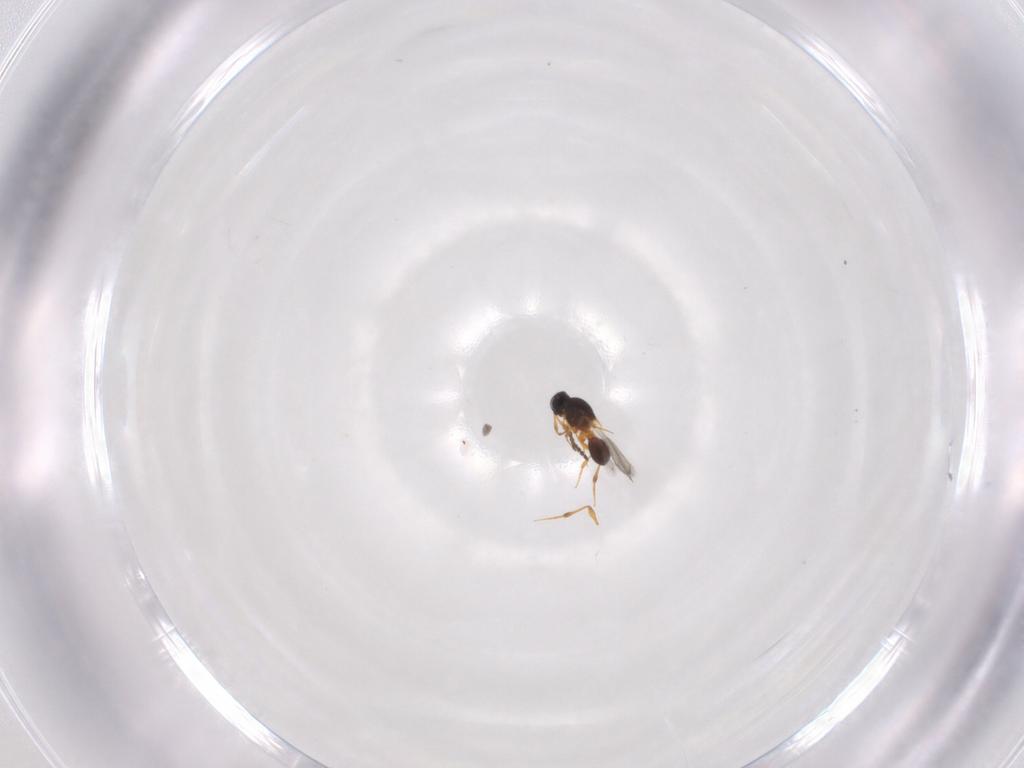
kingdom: Animalia
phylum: Arthropoda
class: Insecta
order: Hymenoptera
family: Platygastridae
